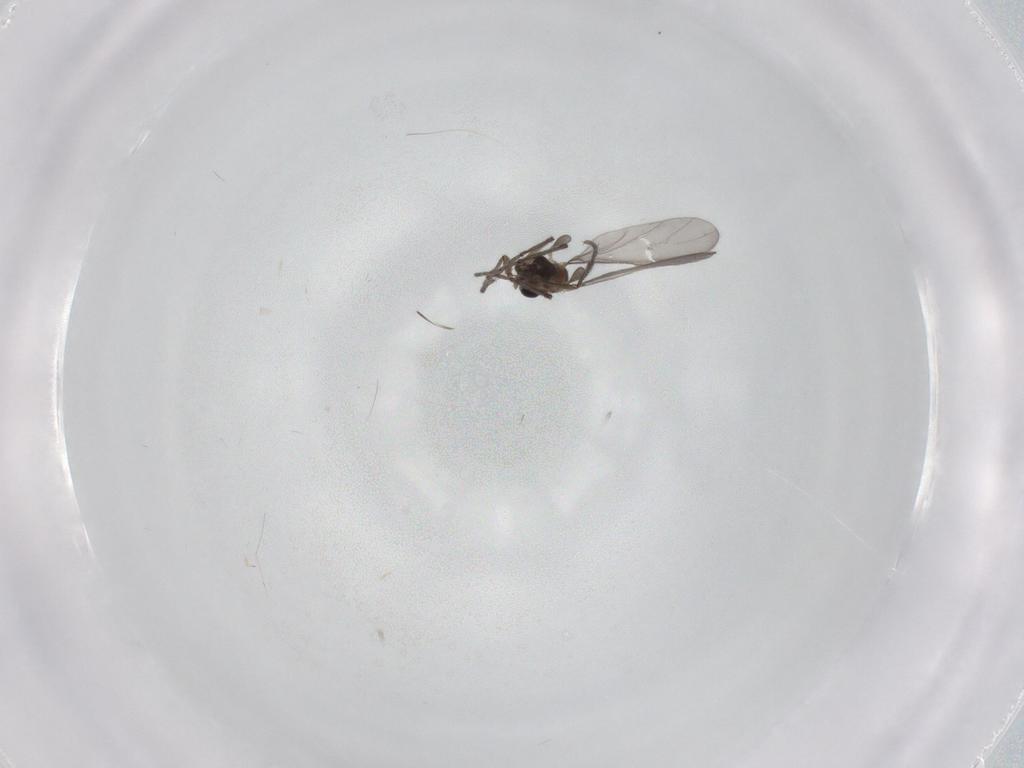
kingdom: Animalia
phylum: Arthropoda
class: Insecta
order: Diptera
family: Sciaridae
